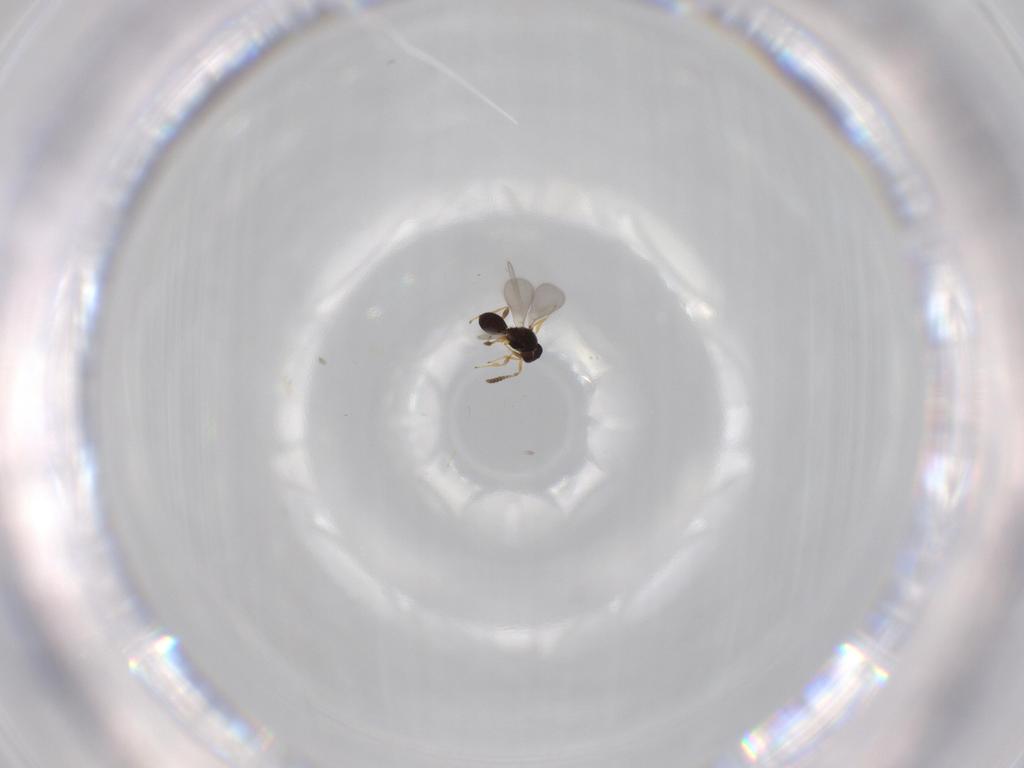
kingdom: Animalia
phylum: Arthropoda
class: Insecta
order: Hymenoptera
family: Platygastridae
